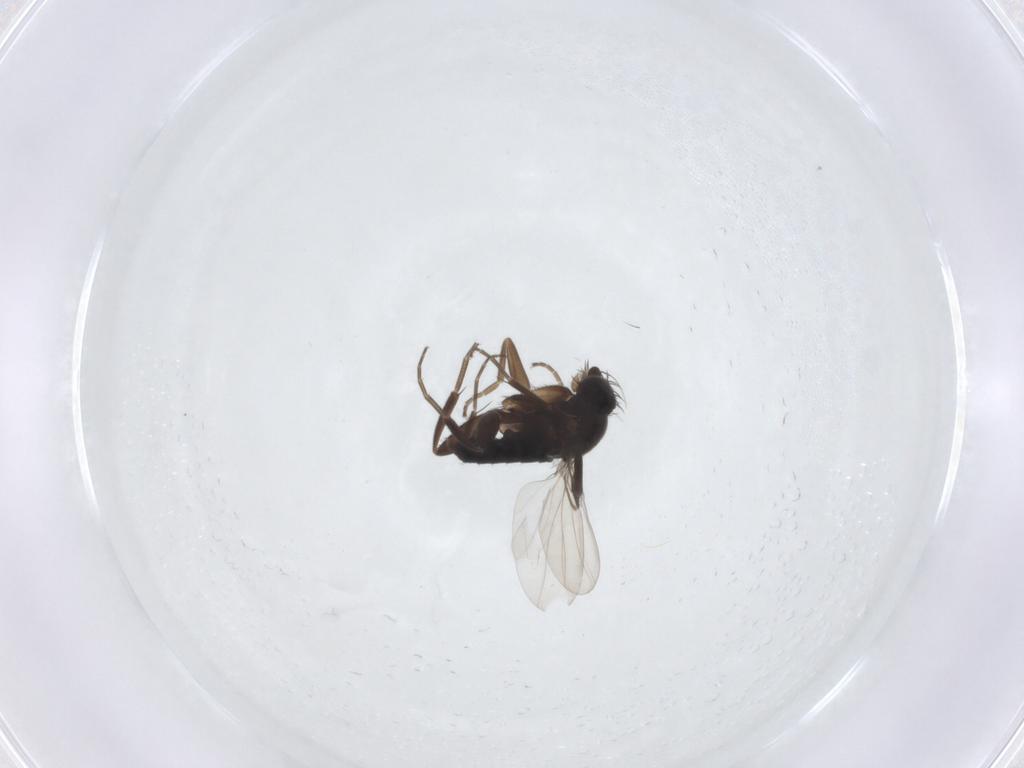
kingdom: Animalia
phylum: Arthropoda
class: Insecta
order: Diptera
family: Phoridae
